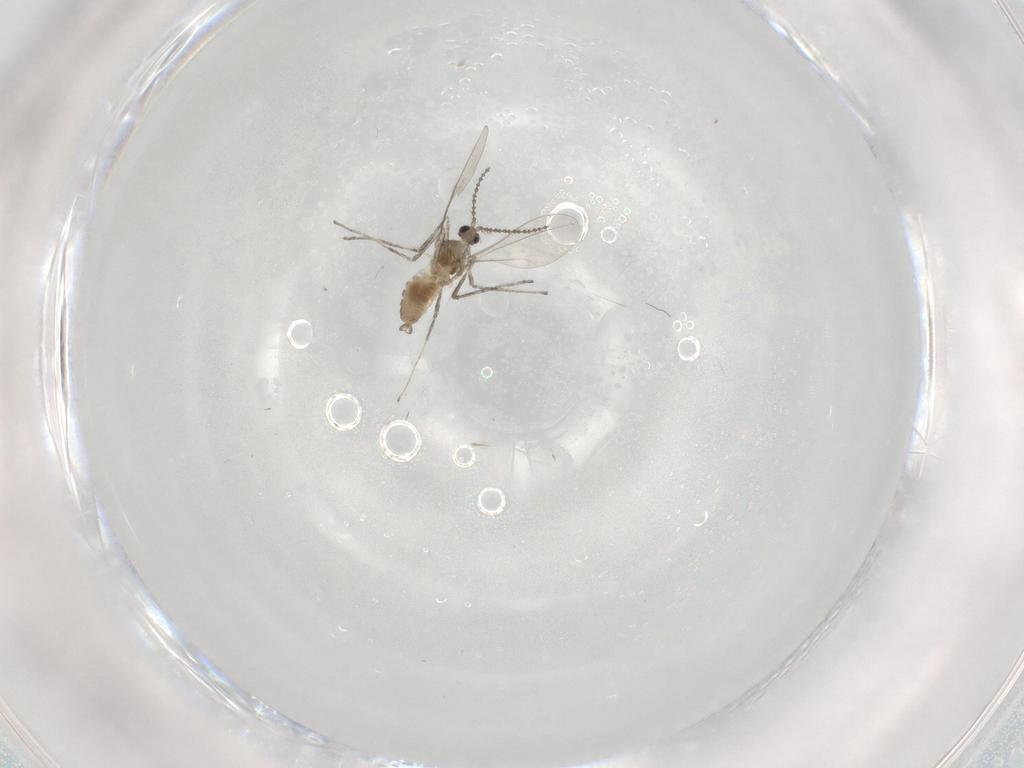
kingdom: Animalia
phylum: Arthropoda
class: Insecta
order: Diptera
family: Cecidomyiidae
